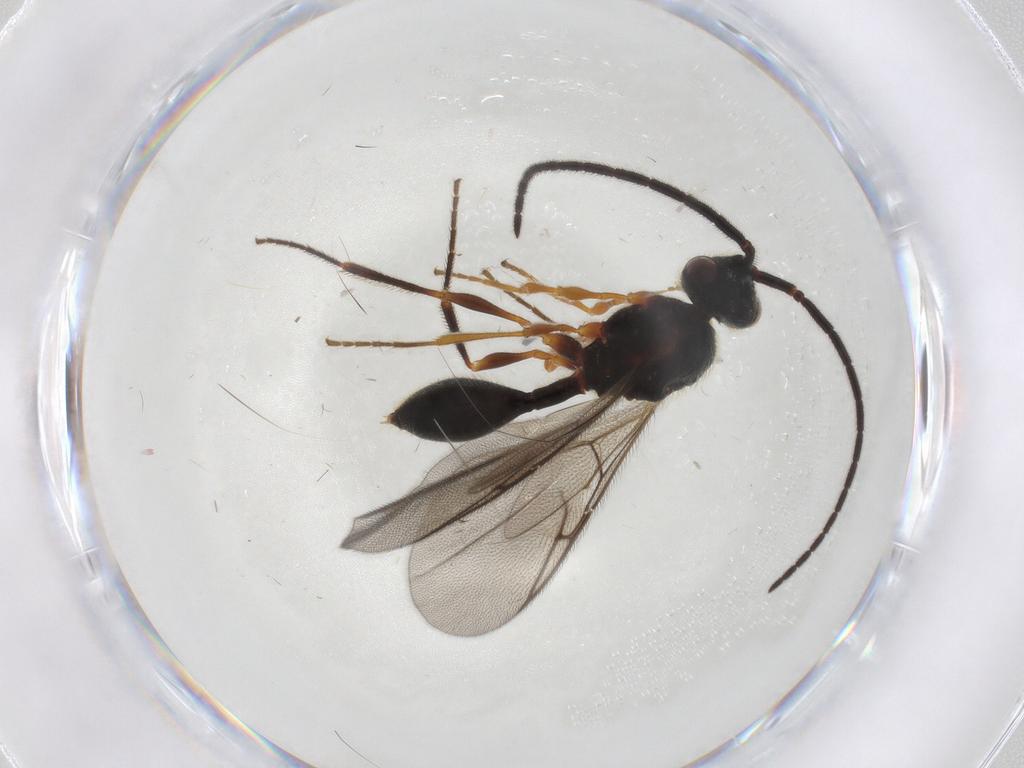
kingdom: Animalia
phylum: Arthropoda
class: Insecta
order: Hymenoptera
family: Diapriidae
